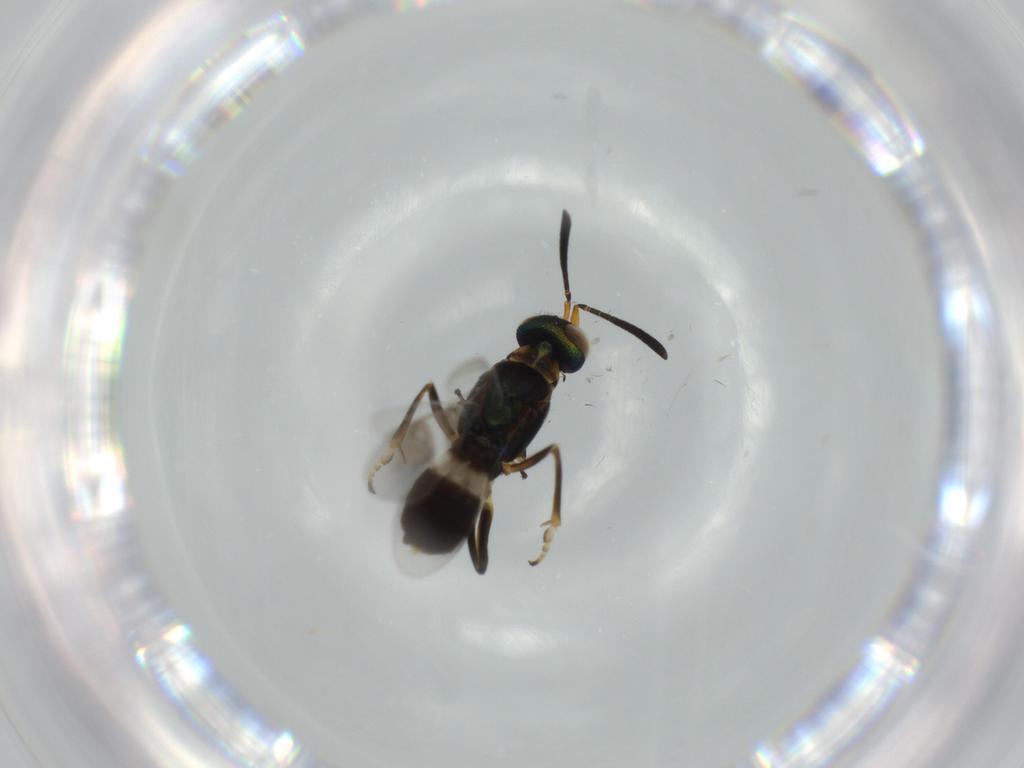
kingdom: Animalia
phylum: Arthropoda
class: Insecta
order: Hymenoptera
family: Eupelmidae
